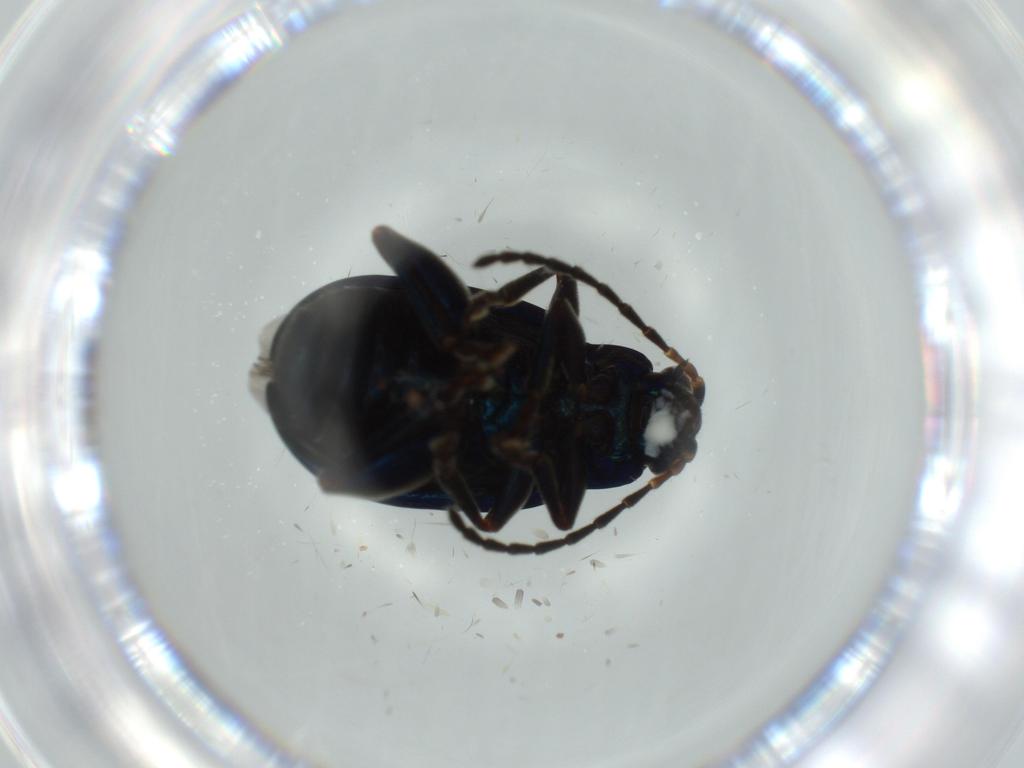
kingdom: Animalia
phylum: Arthropoda
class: Insecta
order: Coleoptera
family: Chrysomelidae
